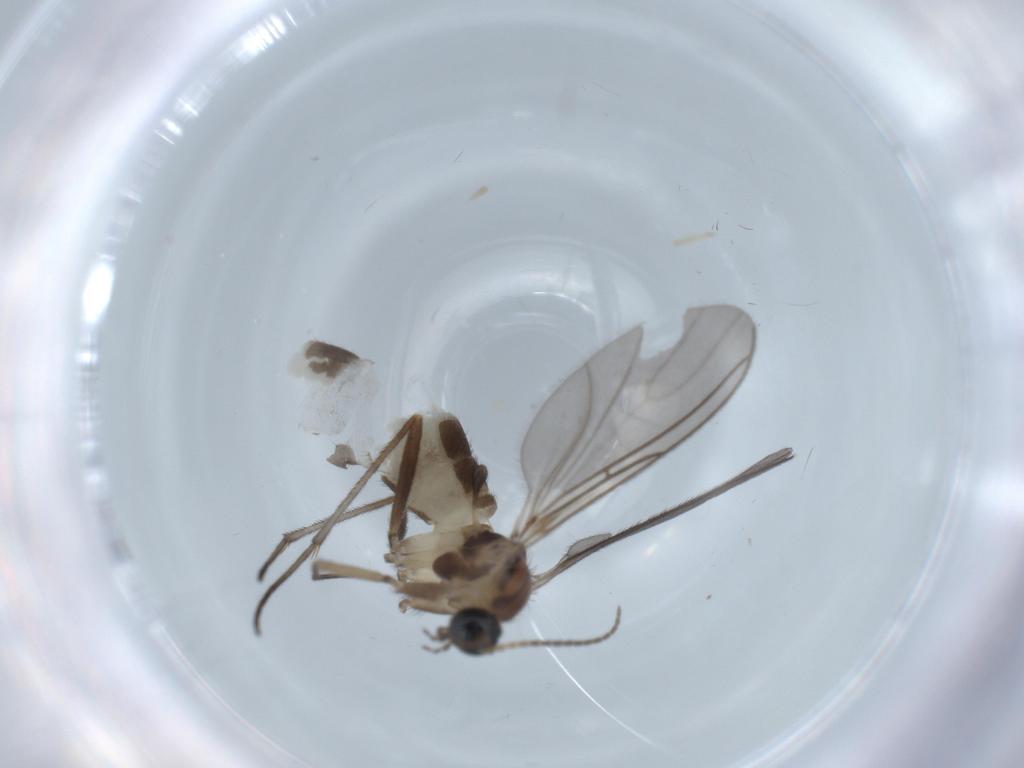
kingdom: Animalia
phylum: Arthropoda
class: Insecta
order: Diptera
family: Sciaridae
